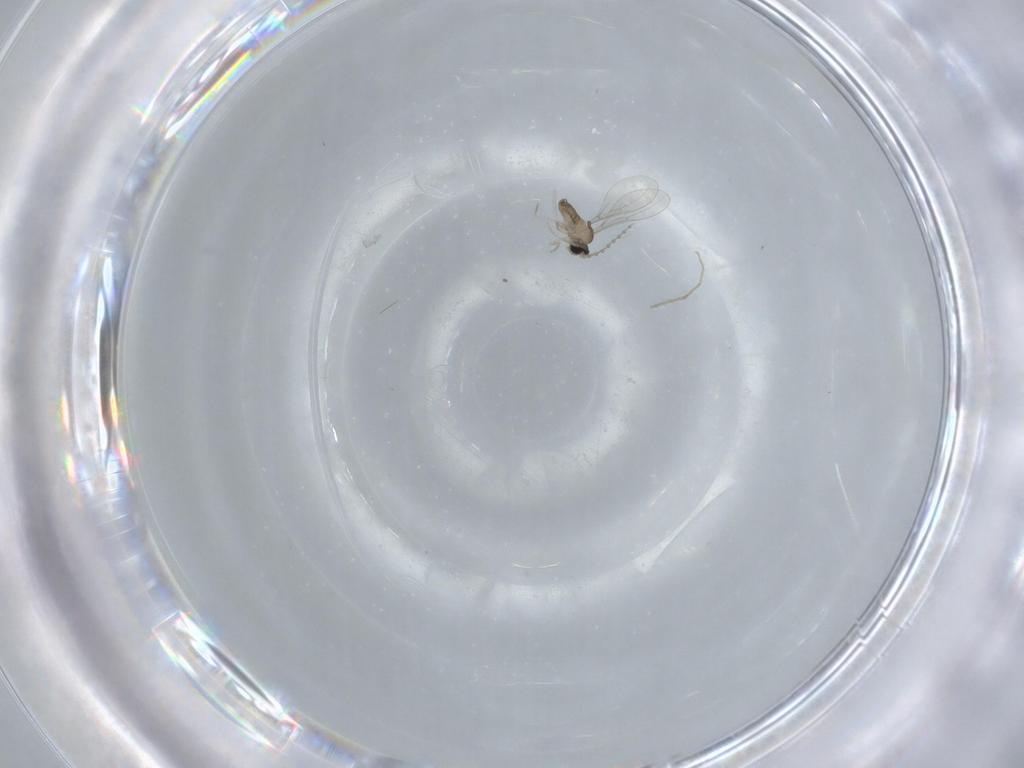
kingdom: Animalia
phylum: Arthropoda
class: Insecta
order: Diptera
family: Cecidomyiidae
